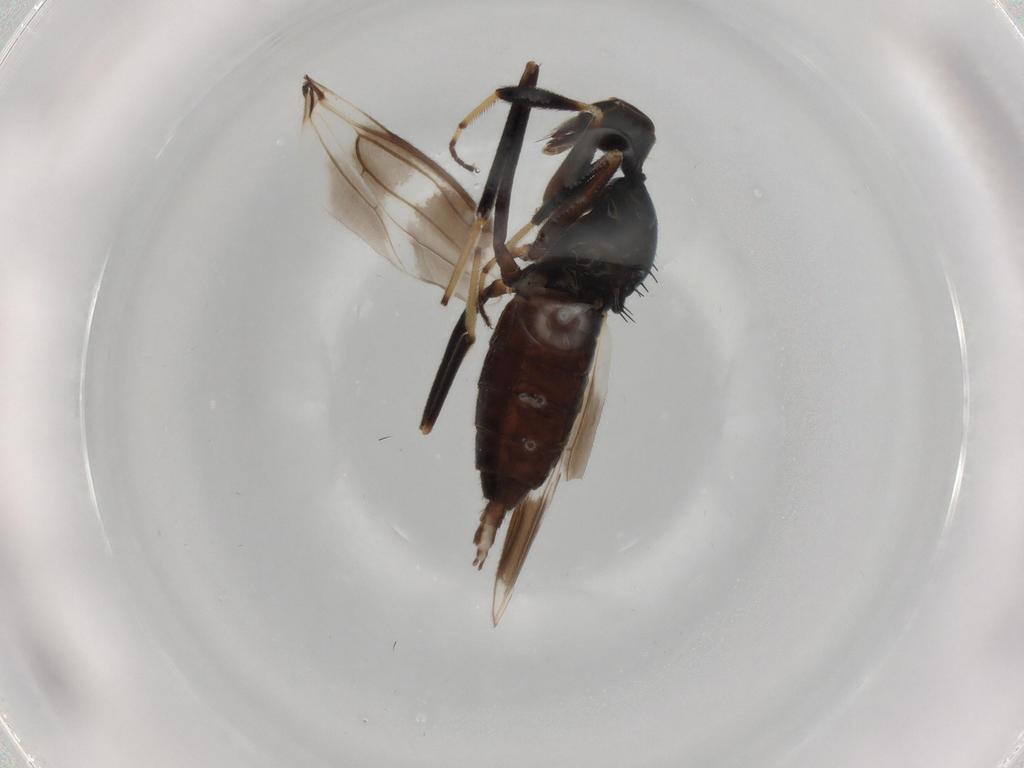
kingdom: Animalia
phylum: Arthropoda
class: Insecta
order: Diptera
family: Hybotidae
